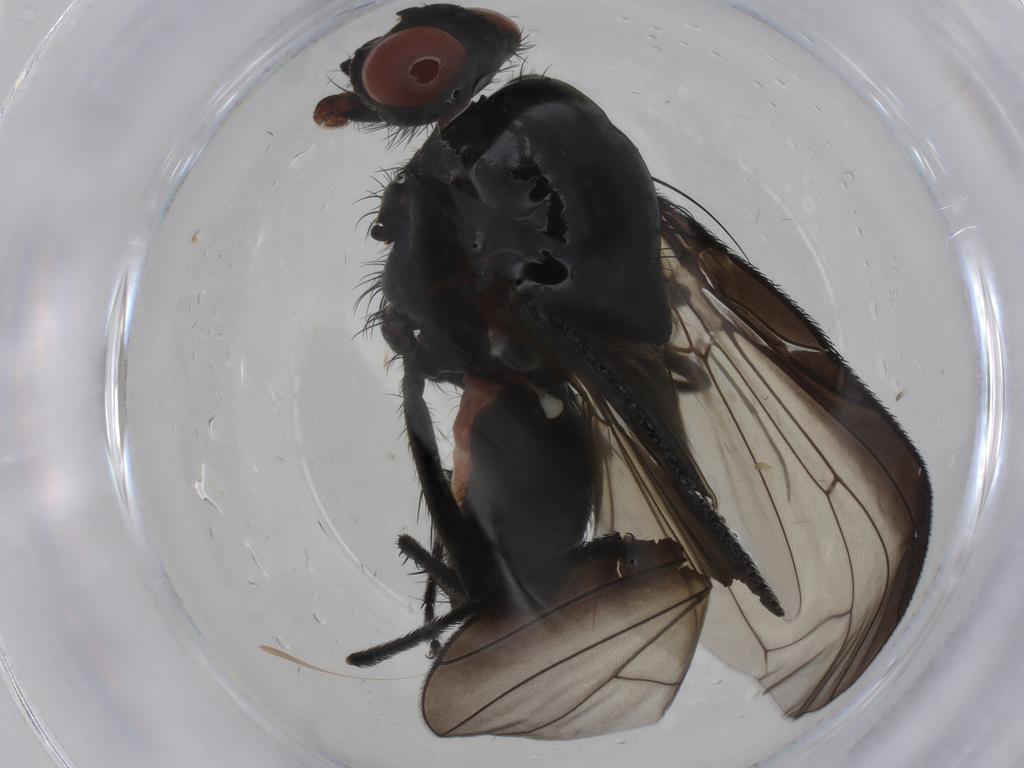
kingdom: Animalia
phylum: Arthropoda
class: Insecta
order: Diptera
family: Anthomyiidae
